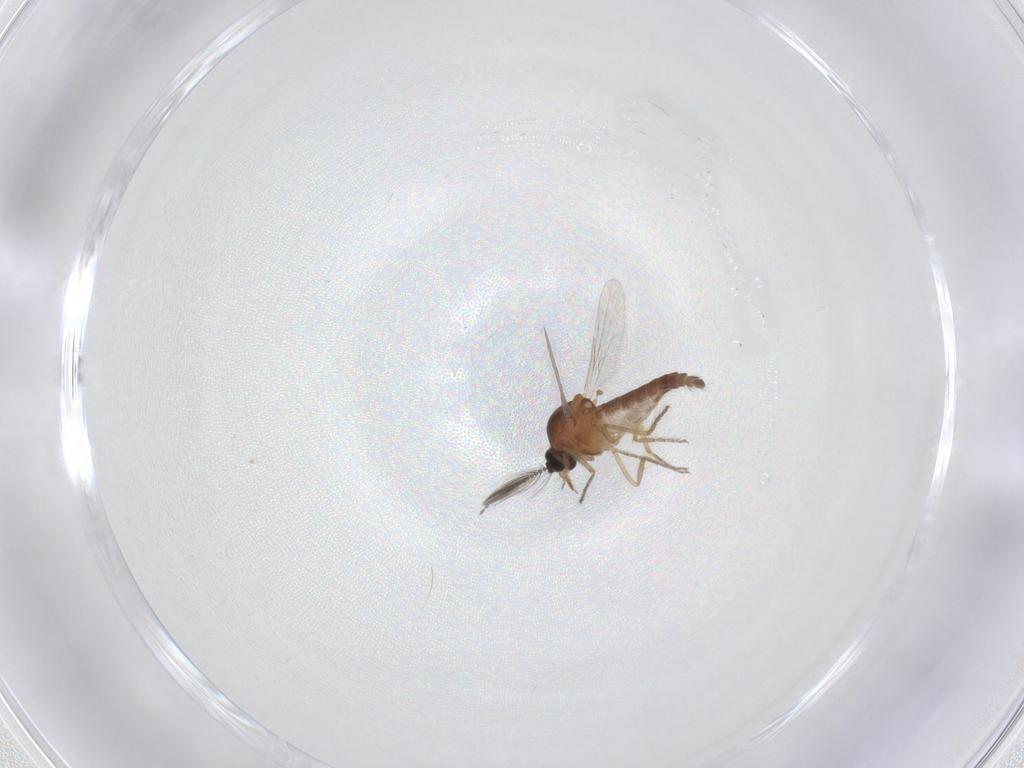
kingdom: Animalia
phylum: Arthropoda
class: Insecta
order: Diptera
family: Ceratopogonidae
